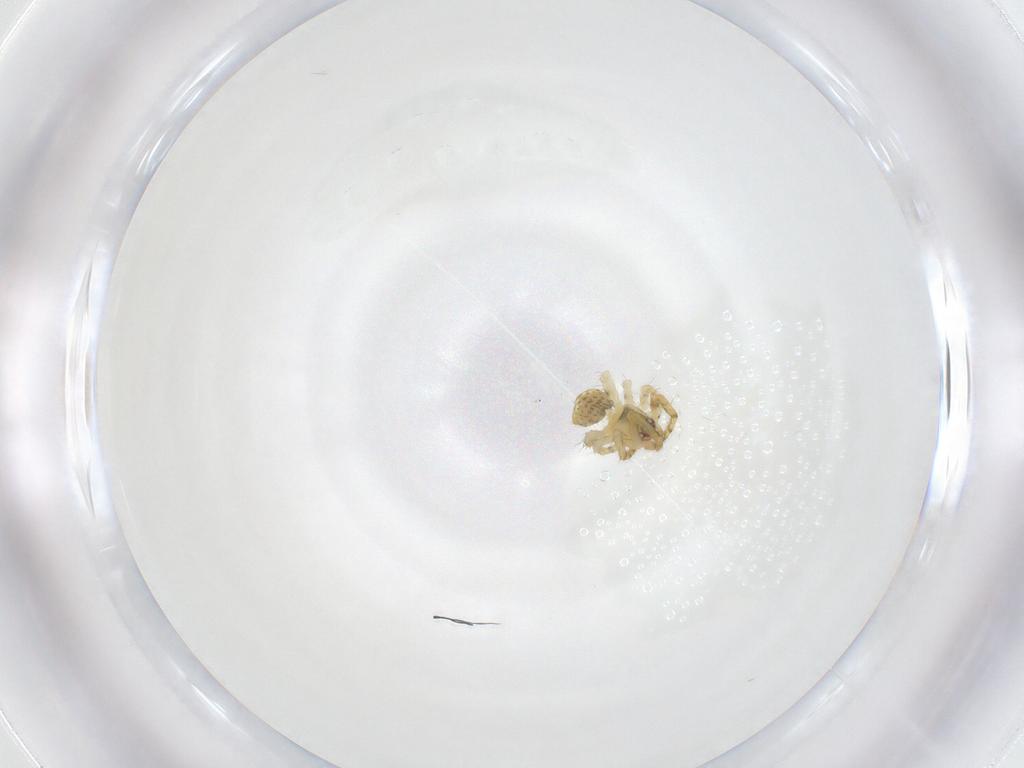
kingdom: Animalia
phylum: Arthropoda
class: Arachnida
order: Araneae
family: Theridiidae
